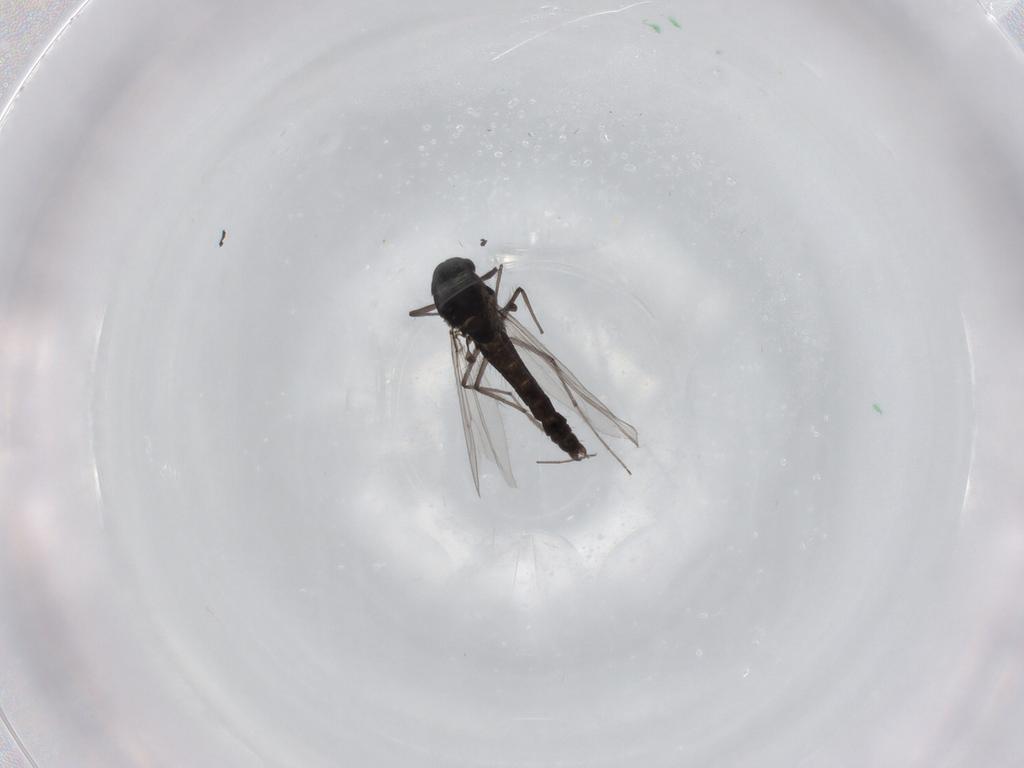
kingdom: Animalia
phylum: Arthropoda
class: Insecta
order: Diptera
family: Chironomidae
